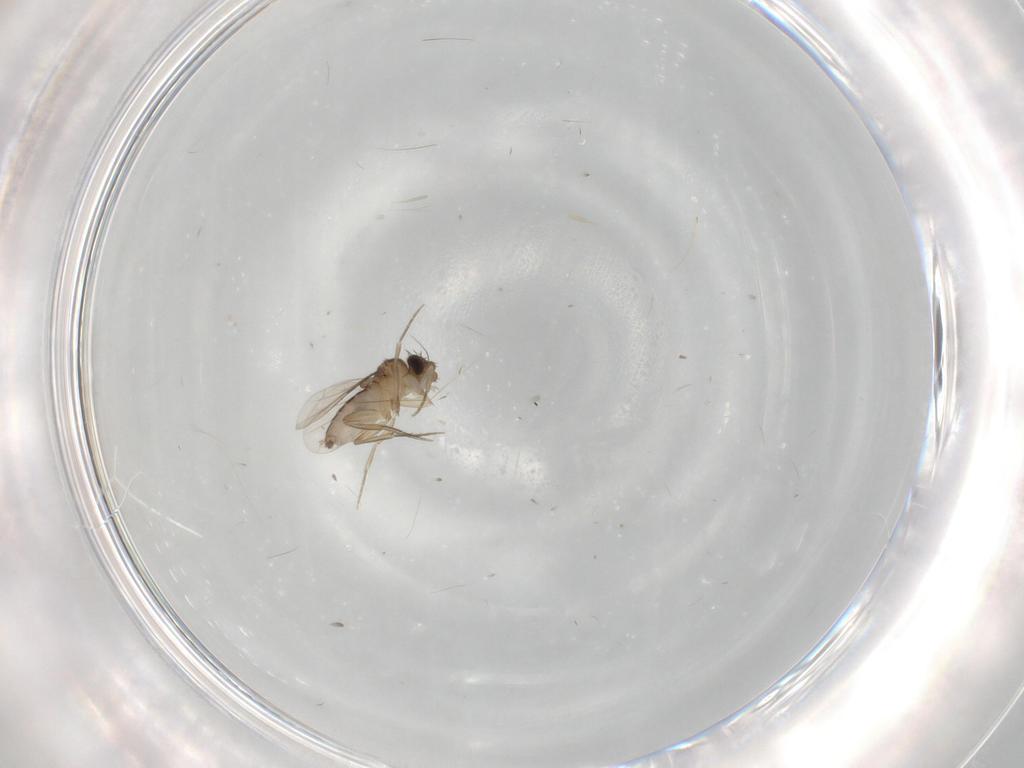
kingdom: Animalia
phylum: Arthropoda
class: Insecta
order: Diptera
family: Phoridae
